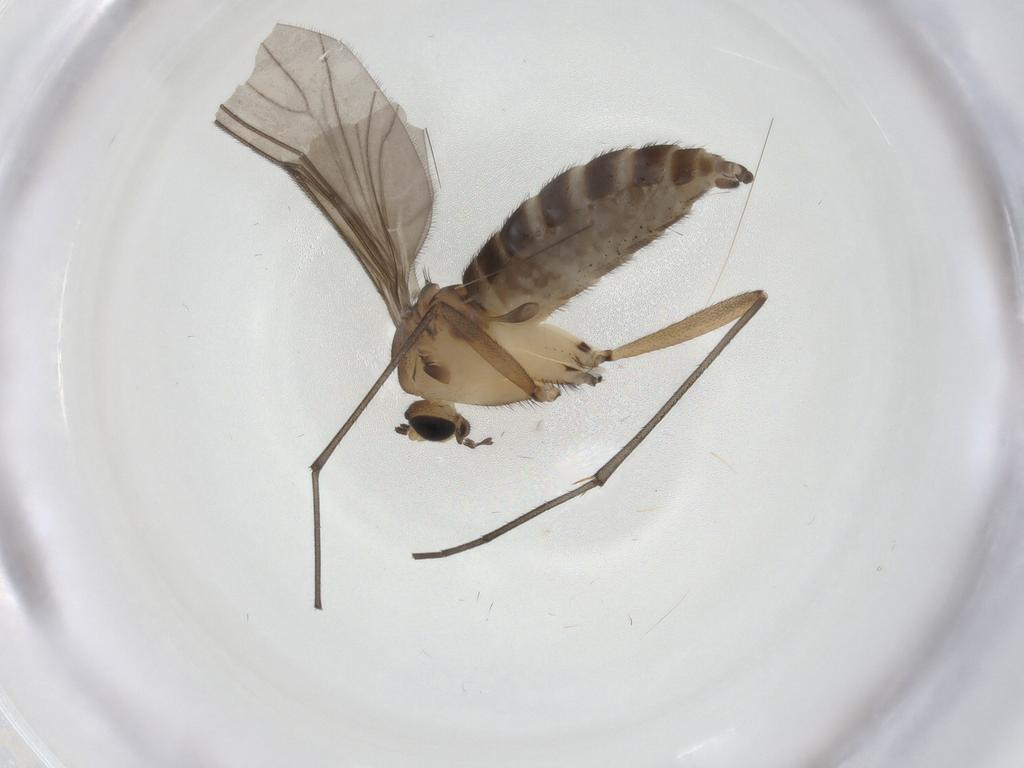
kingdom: Animalia
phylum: Arthropoda
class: Insecta
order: Diptera
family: Sciaridae
